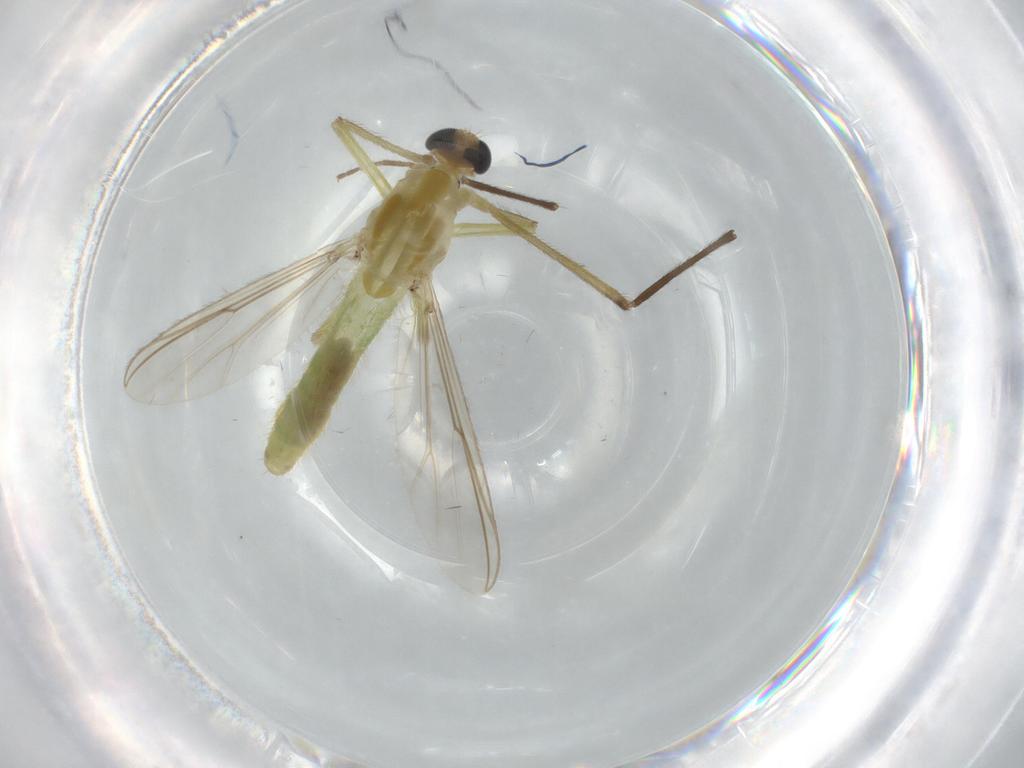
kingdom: Animalia
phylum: Arthropoda
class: Insecta
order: Diptera
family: Chironomidae
